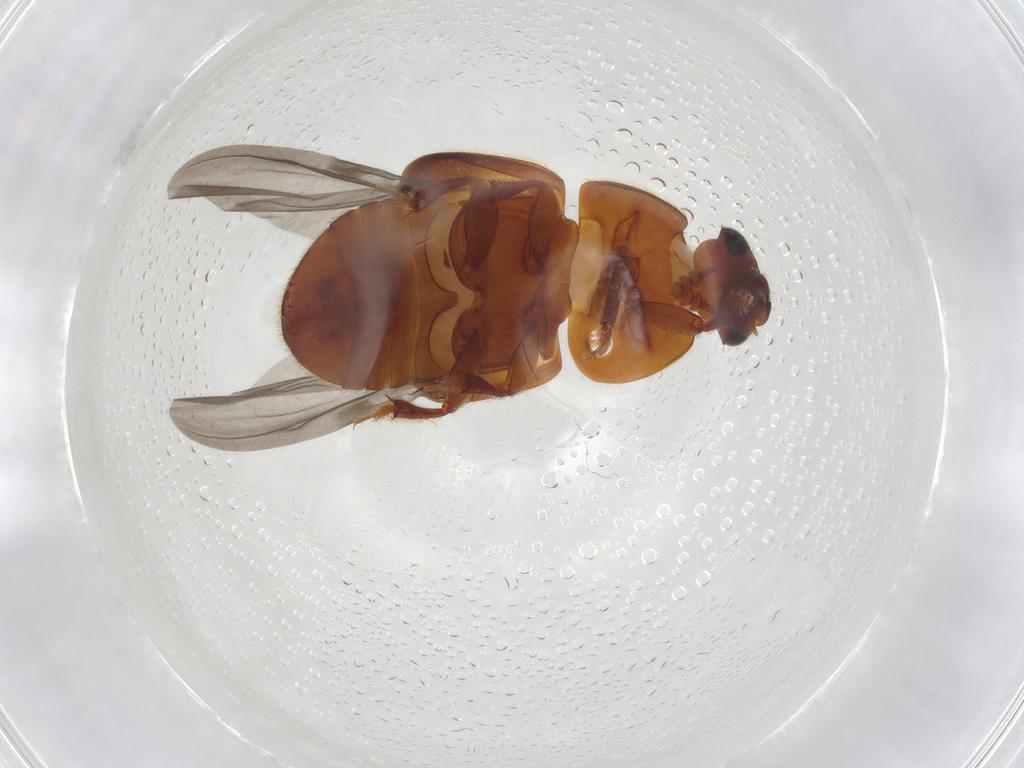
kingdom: Animalia
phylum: Arthropoda
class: Insecta
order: Coleoptera
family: Nitidulidae
